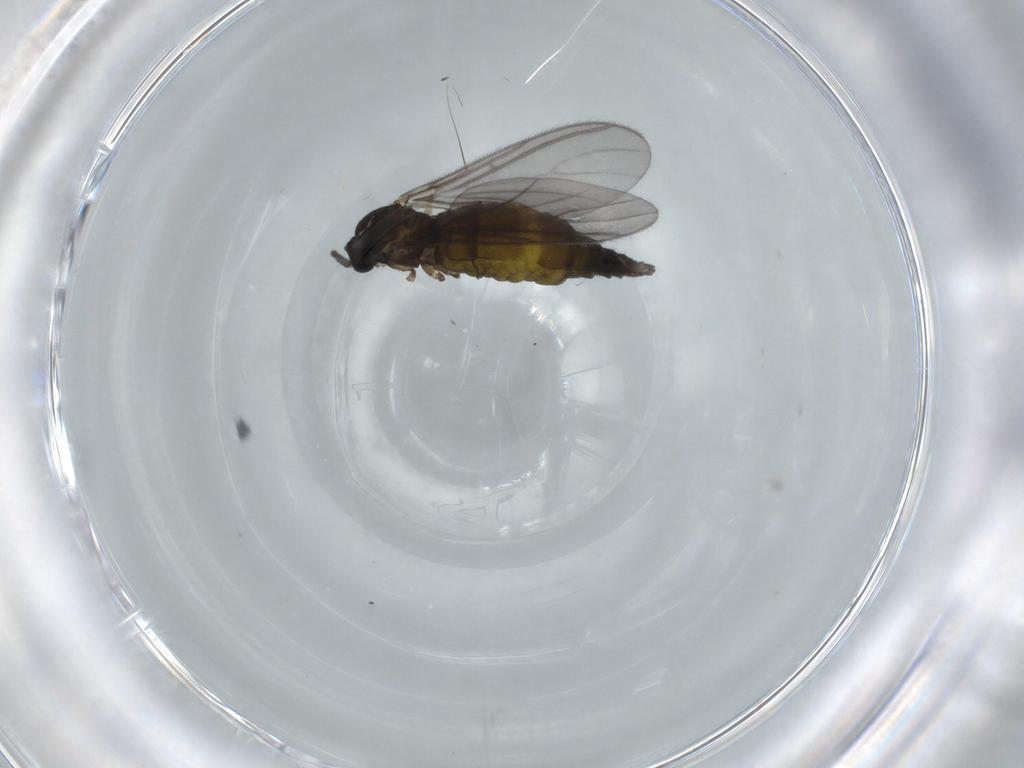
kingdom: Animalia
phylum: Arthropoda
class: Insecta
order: Diptera
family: Sciaridae
